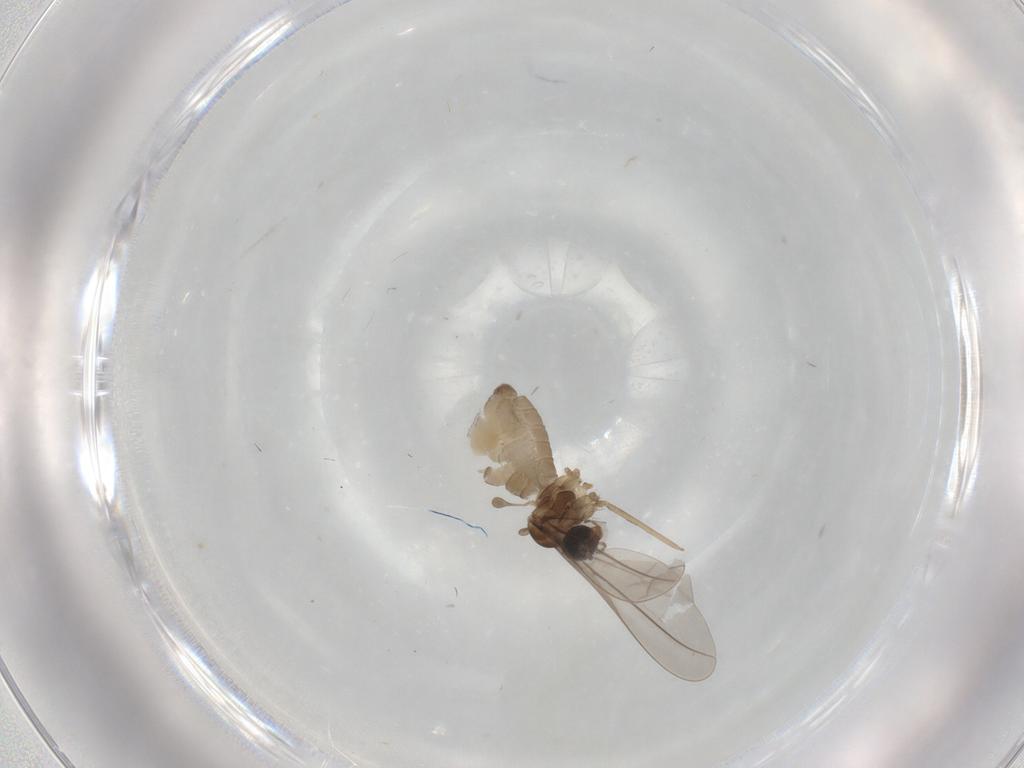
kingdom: Animalia
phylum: Arthropoda
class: Insecta
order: Diptera
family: Cecidomyiidae
